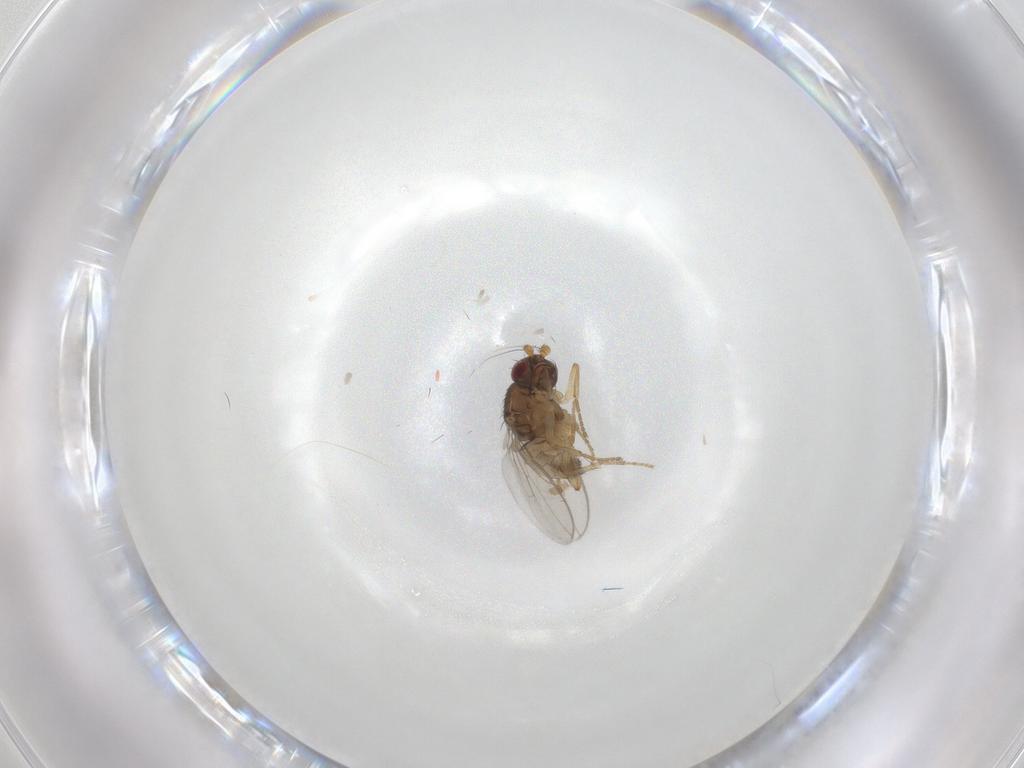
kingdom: Animalia
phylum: Arthropoda
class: Insecta
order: Diptera
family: Sphaeroceridae
